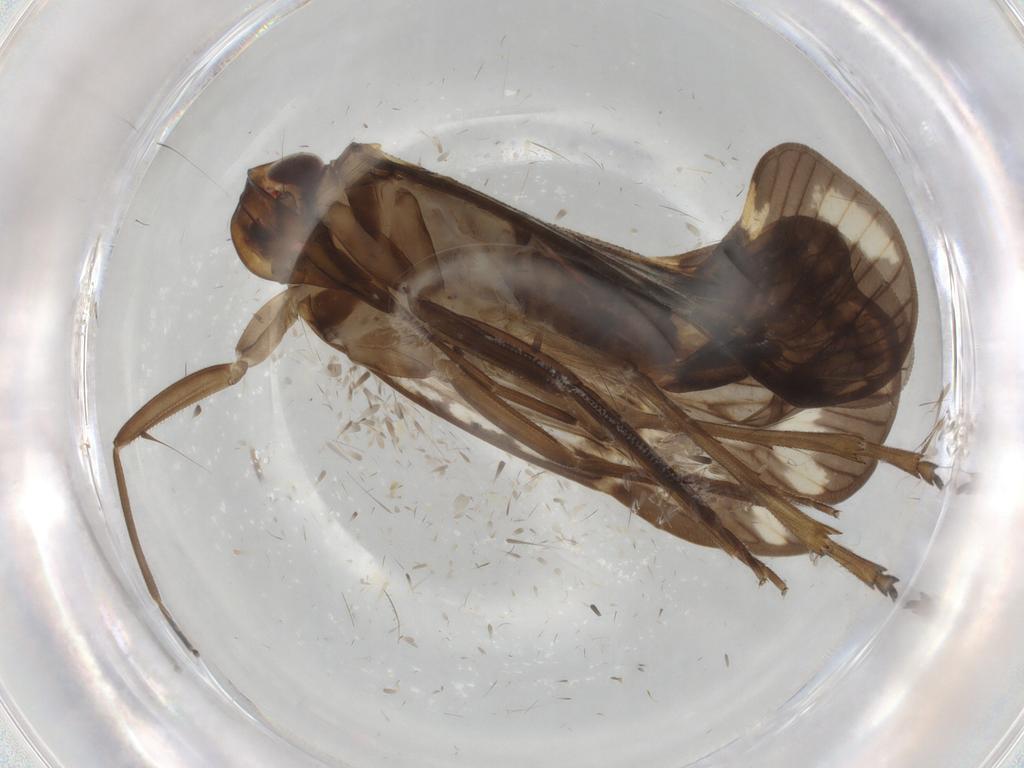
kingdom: Animalia
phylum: Arthropoda
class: Insecta
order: Hemiptera
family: Cixiidae
